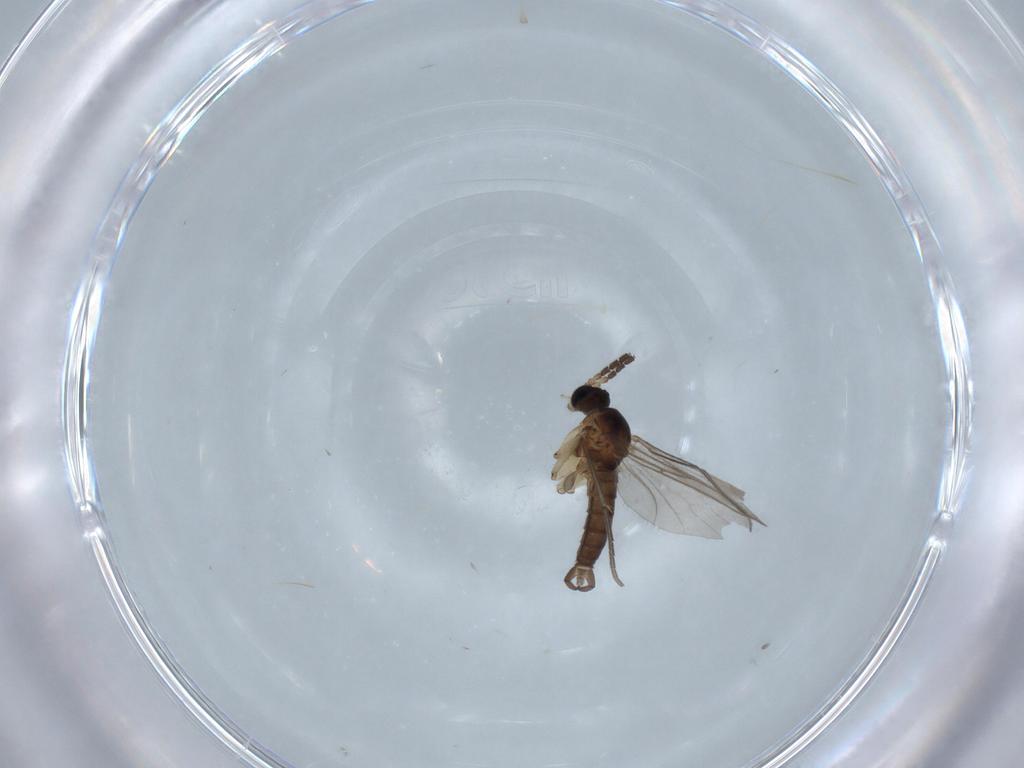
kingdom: Animalia
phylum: Arthropoda
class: Insecta
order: Diptera
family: Chironomidae
